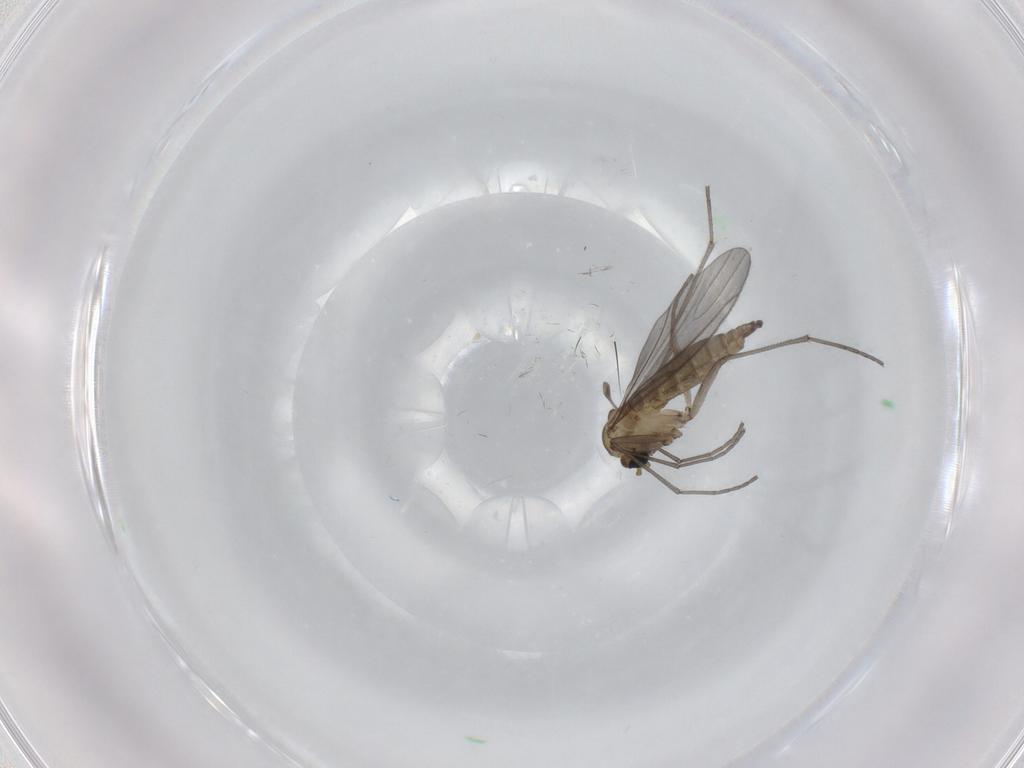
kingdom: Animalia
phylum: Arthropoda
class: Insecta
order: Diptera
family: Sciaridae
